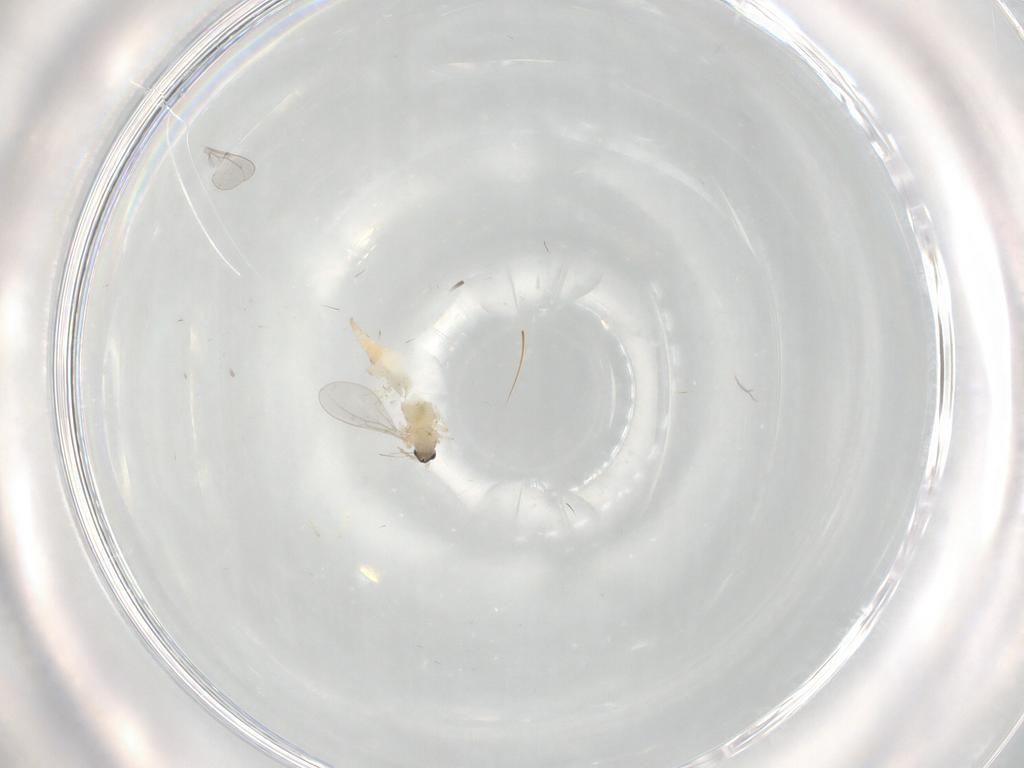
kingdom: Animalia
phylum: Arthropoda
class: Insecta
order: Diptera
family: Cecidomyiidae
